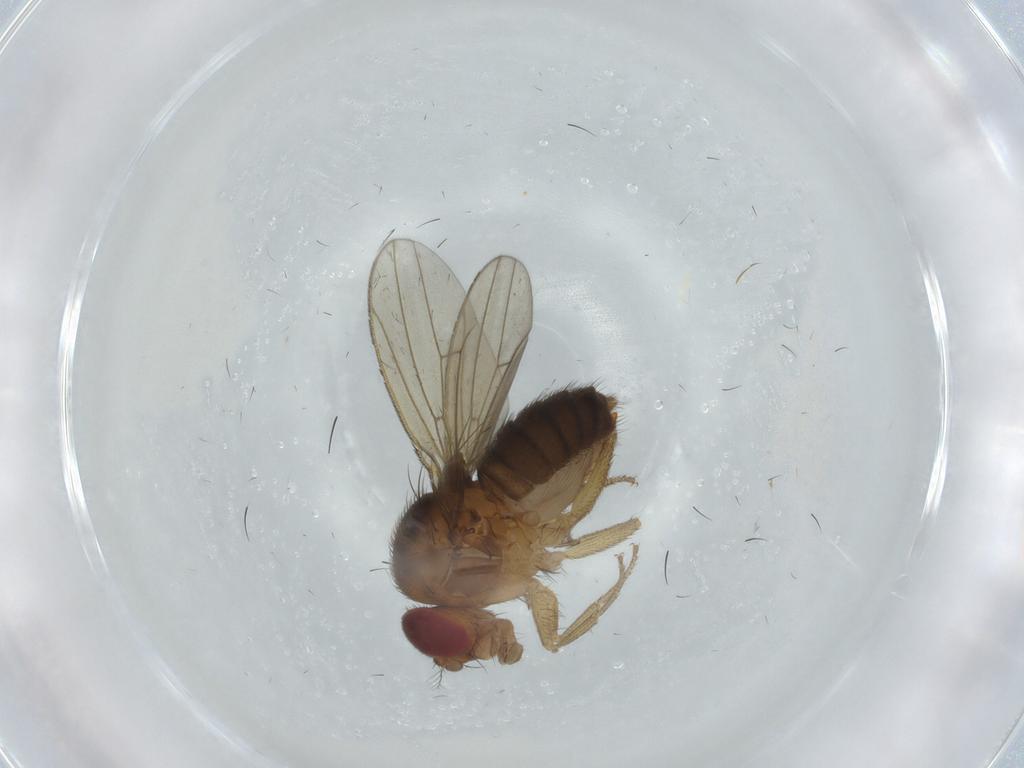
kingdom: Animalia
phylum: Arthropoda
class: Insecta
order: Diptera
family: Drosophilidae
